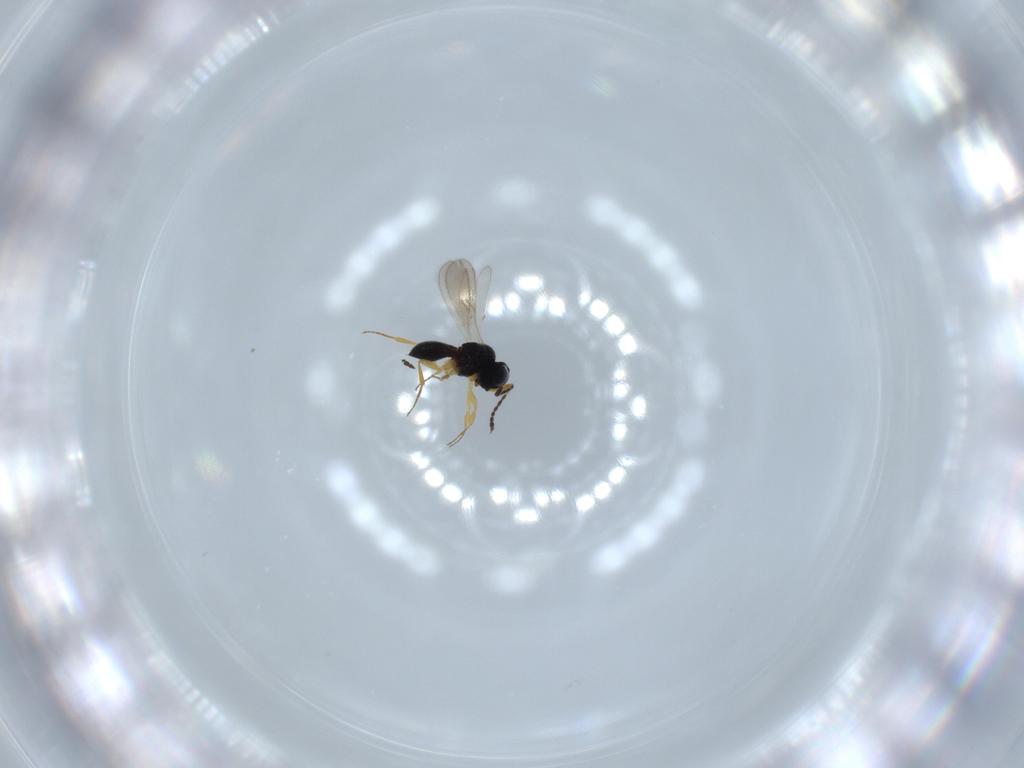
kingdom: Animalia
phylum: Arthropoda
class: Insecta
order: Hymenoptera
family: Scelionidae
